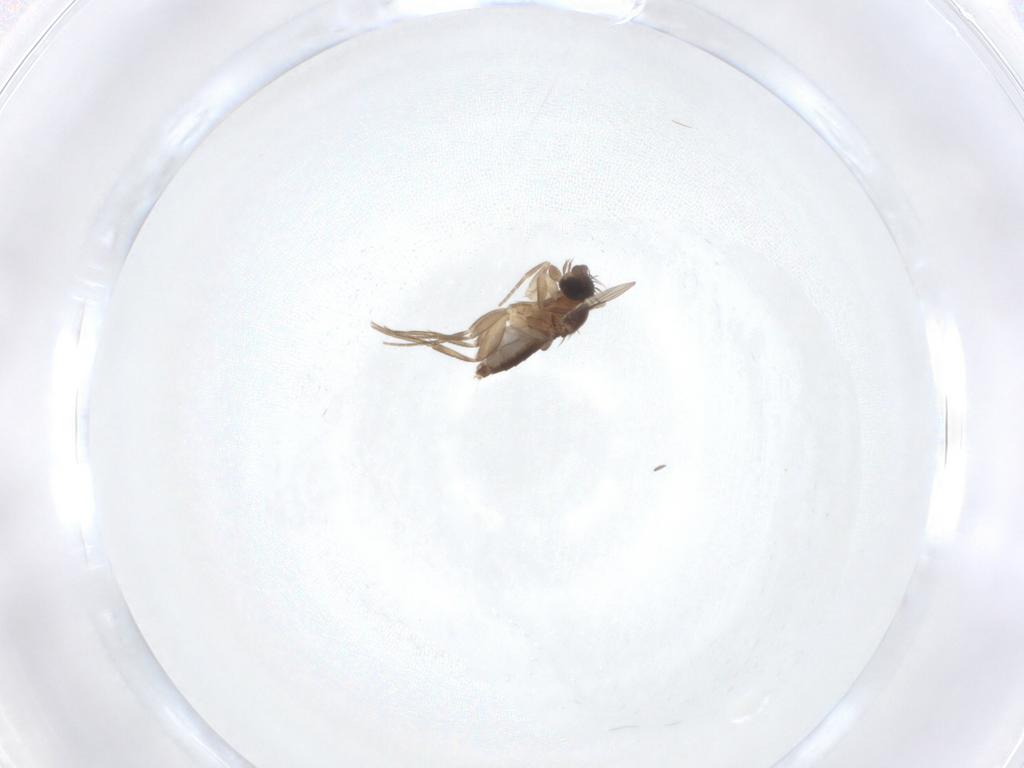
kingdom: Animalia
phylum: Arthropoda
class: Insecta
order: Diptera
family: Phoridae
